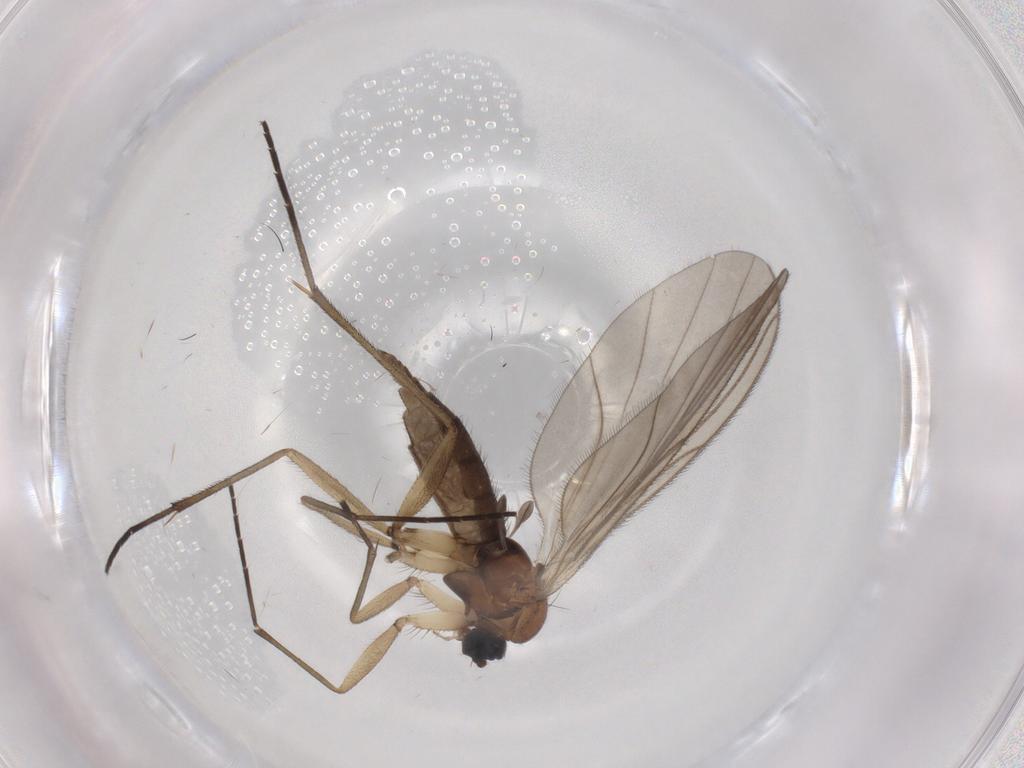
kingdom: Animalia
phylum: Arthropoda
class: Insecta
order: Diptera
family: Sciaridae
